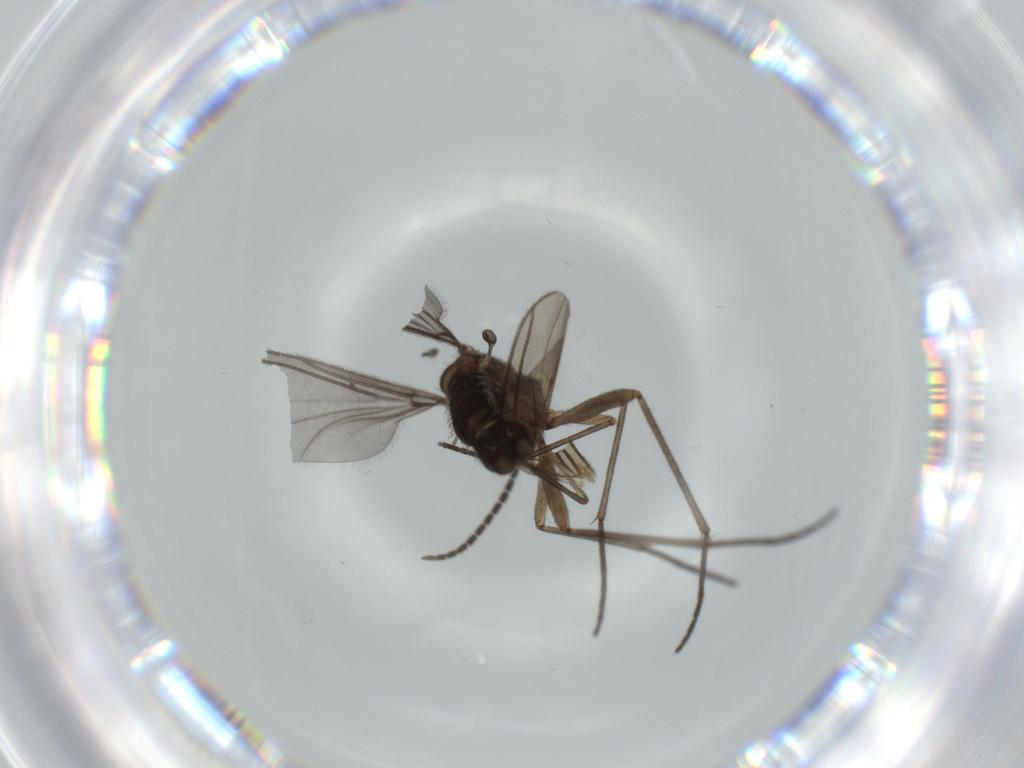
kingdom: Animalia
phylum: Arthropoda
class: Insecta
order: Diptera
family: Sciaridae
